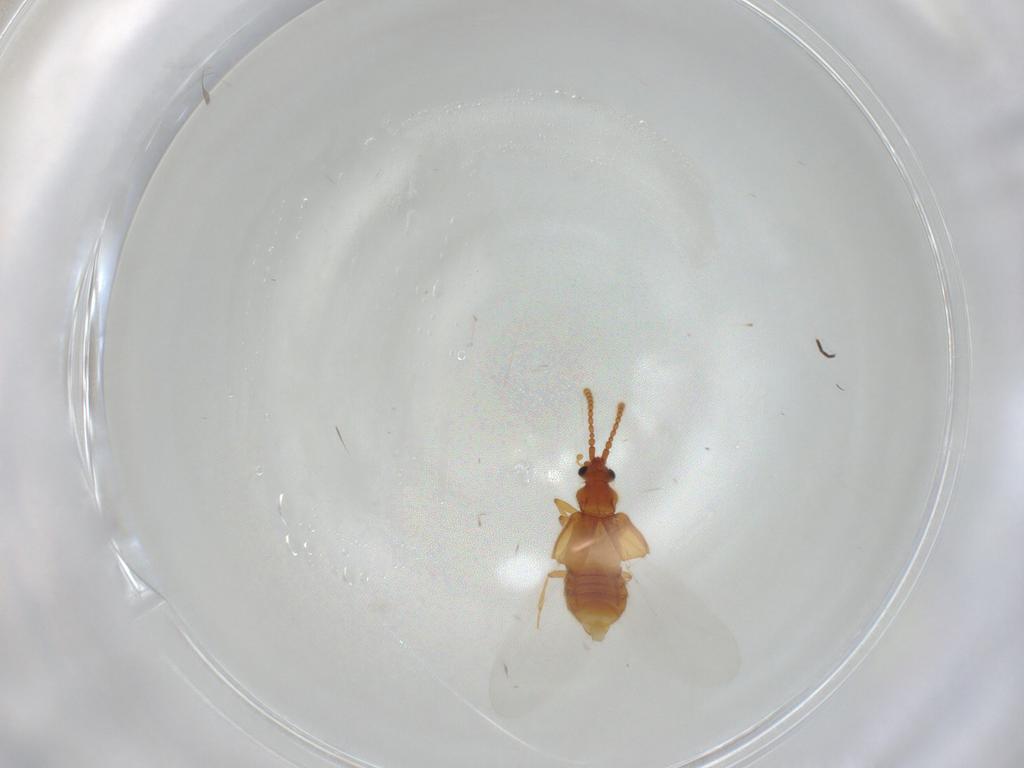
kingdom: Animalia
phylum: Arthropoda
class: Insecta
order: Coleoptera
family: Staphylinidae
